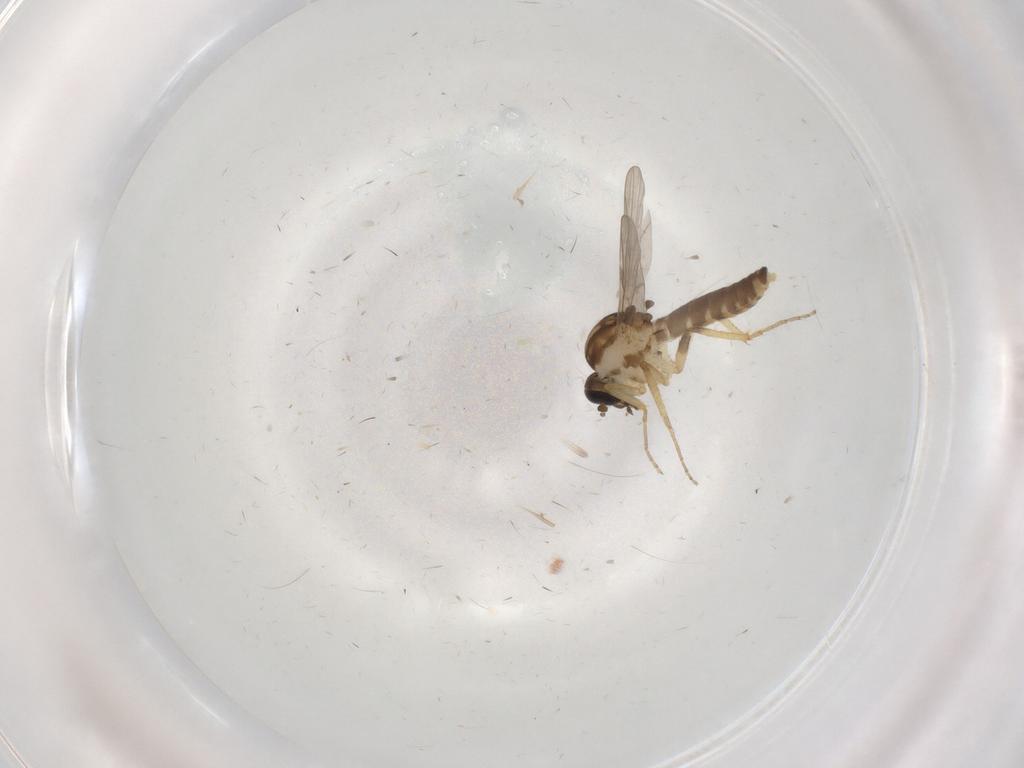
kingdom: Animalia
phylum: Arthropoda
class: Insecta
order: Diptera
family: Ceratopogonidae
